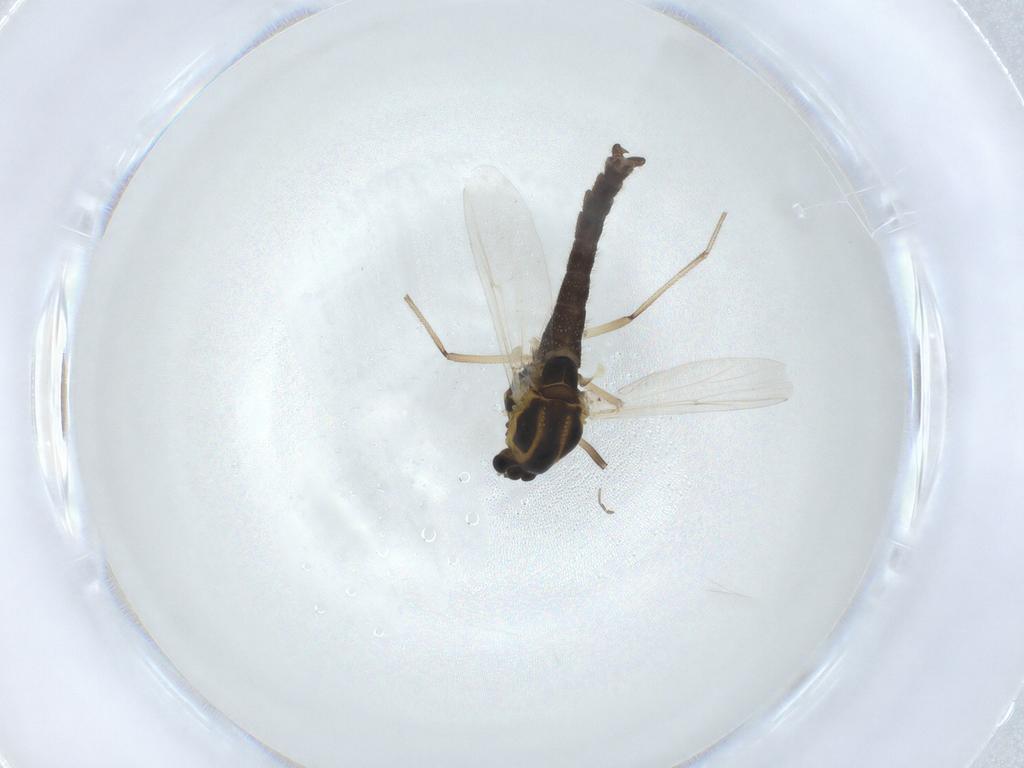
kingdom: Animalia
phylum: Arthropoda
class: Insecta
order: Diptera
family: Chironomidae
